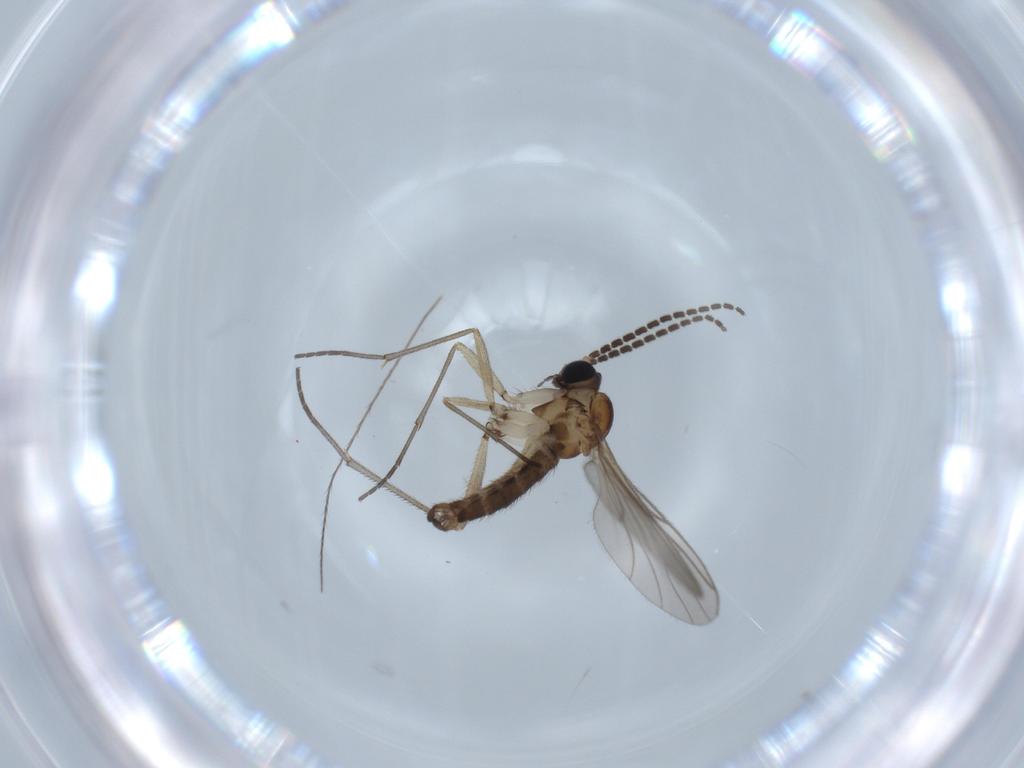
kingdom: Animalia
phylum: Arthropoda
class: Insecta
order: Diptera
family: Sciaridae
